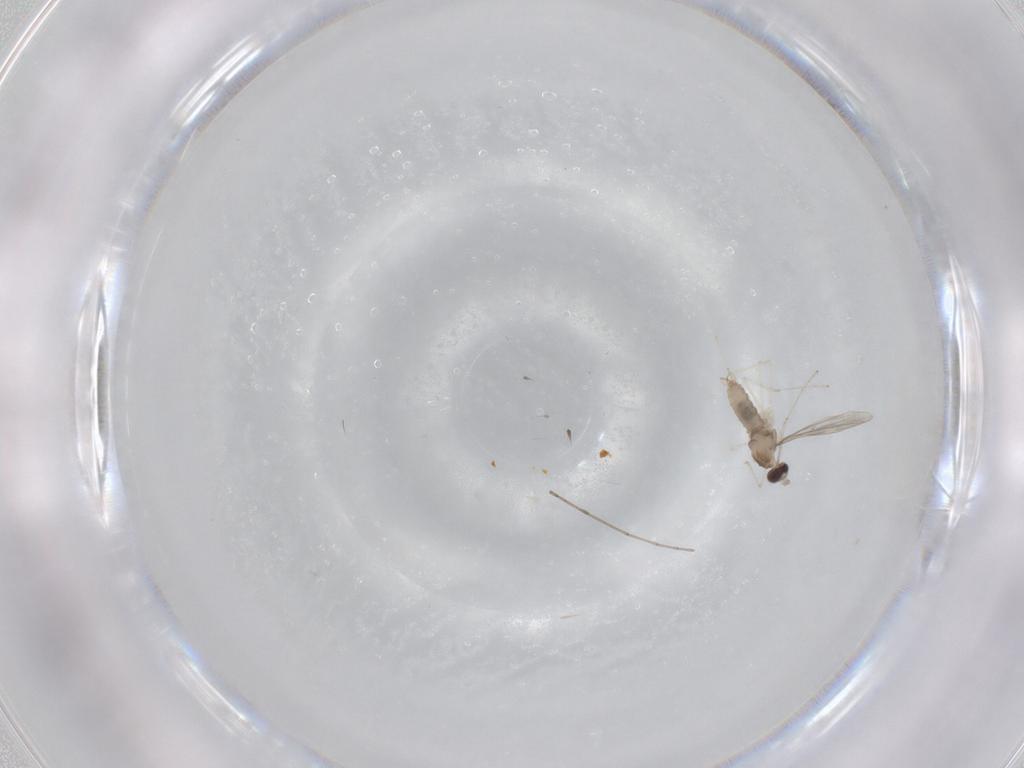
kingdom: Animalia
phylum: Arthropoda
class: Insecta
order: Diptera
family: Cecidomyiidae
